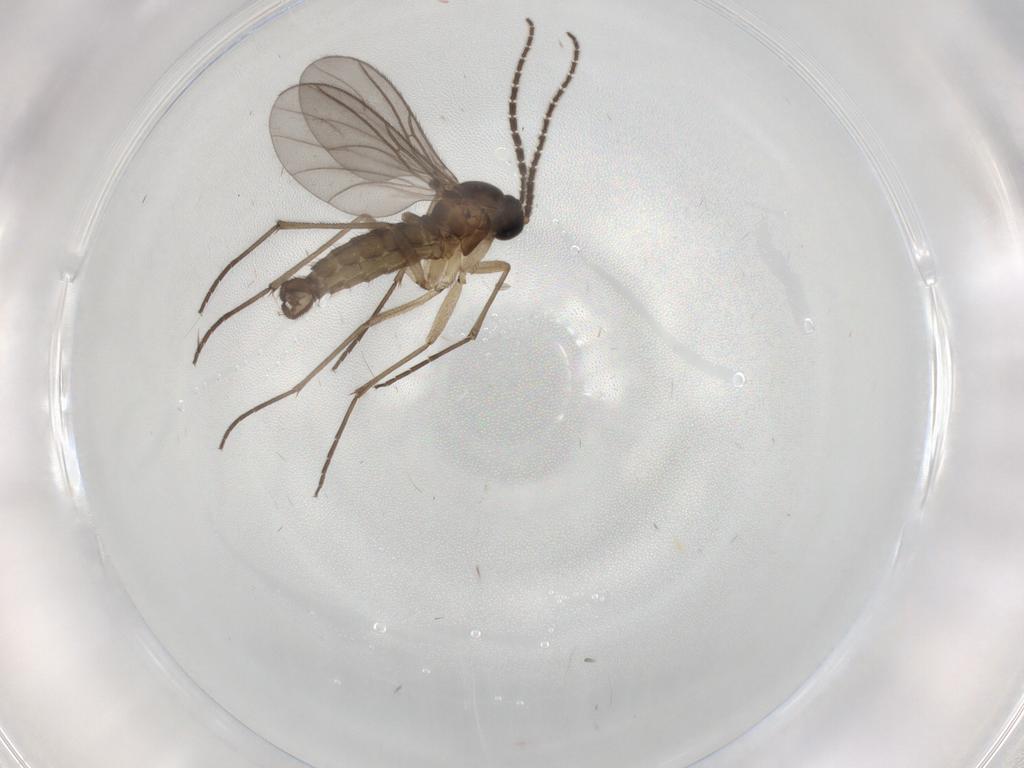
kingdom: Animalia
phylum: Arthropoda
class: Insecta
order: Diptera
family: Sciaridae
